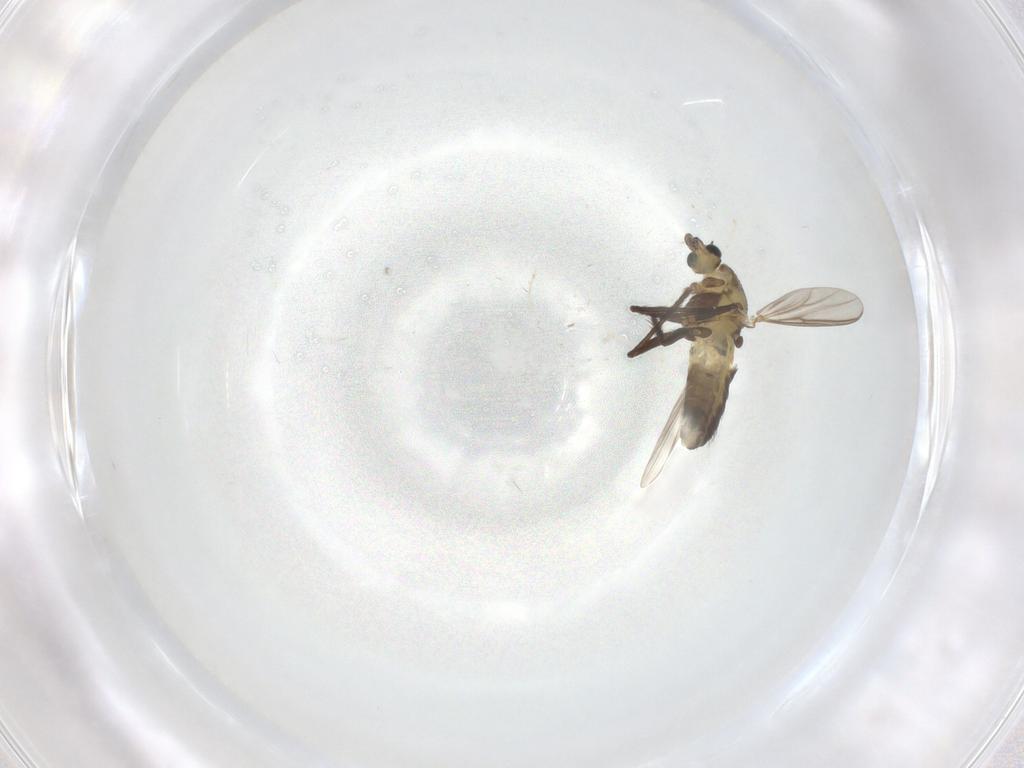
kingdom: Animalia
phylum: Arthropoda
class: Insecta
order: Diptera
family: Chironomidae
